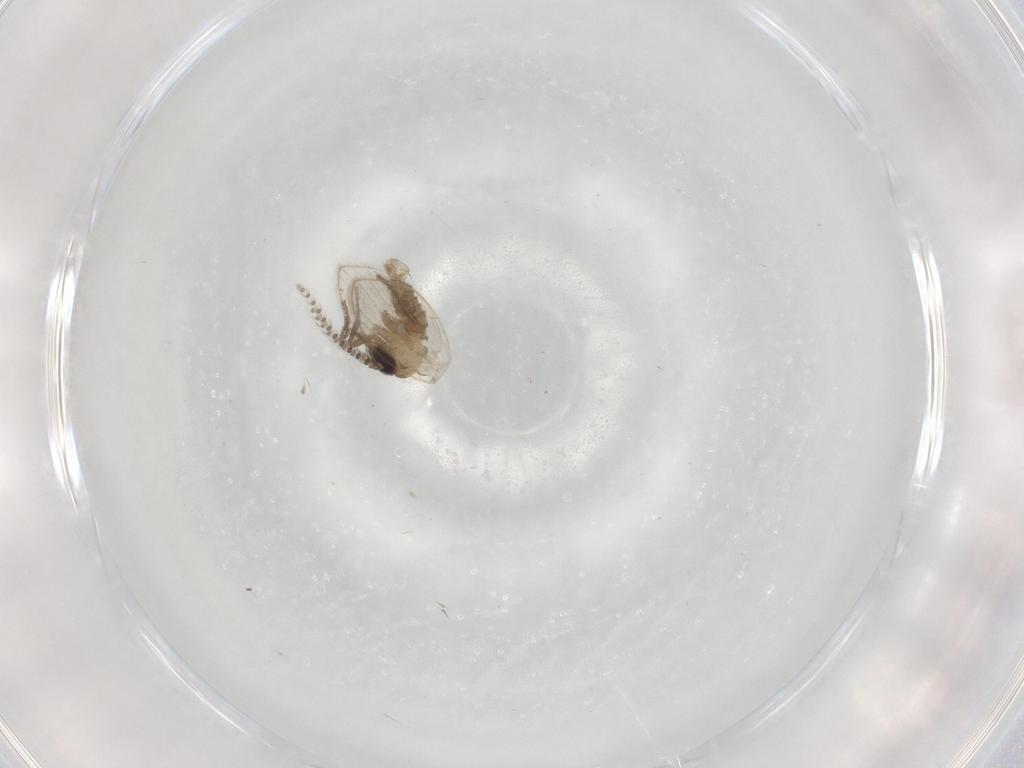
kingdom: Animalia
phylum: Arthropoda
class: Insecta
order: Diptera
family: Psychodidae
